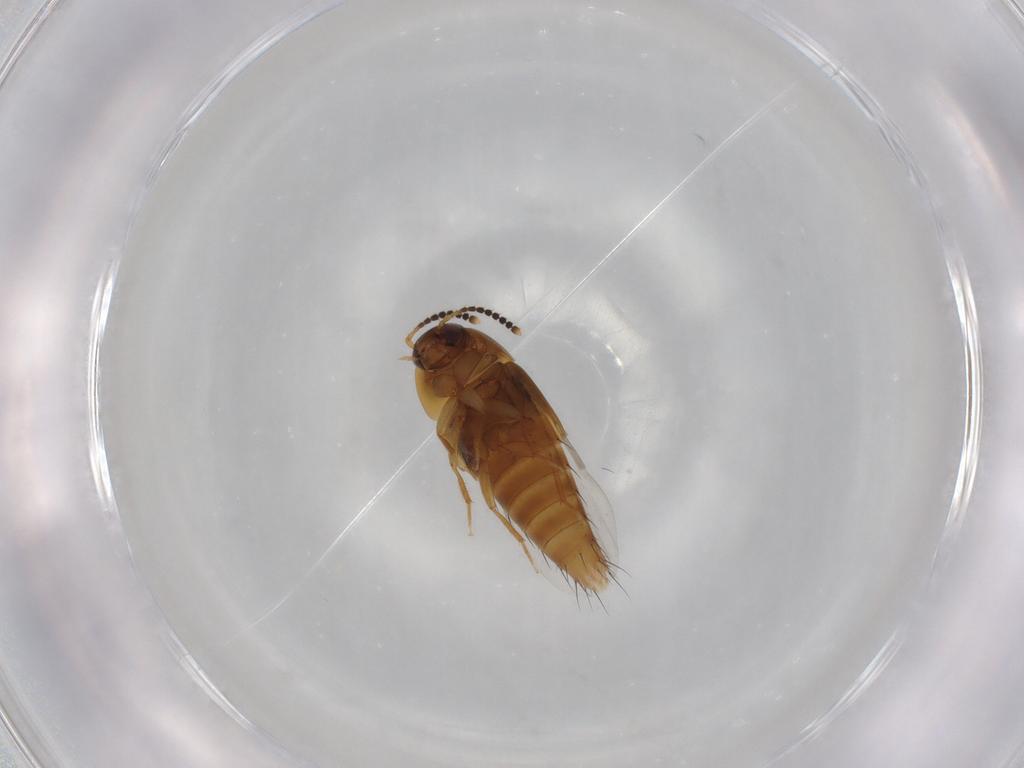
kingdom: Animalia
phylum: Arthropoda
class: Insecta
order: Coleoptera
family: Staphylinidae
